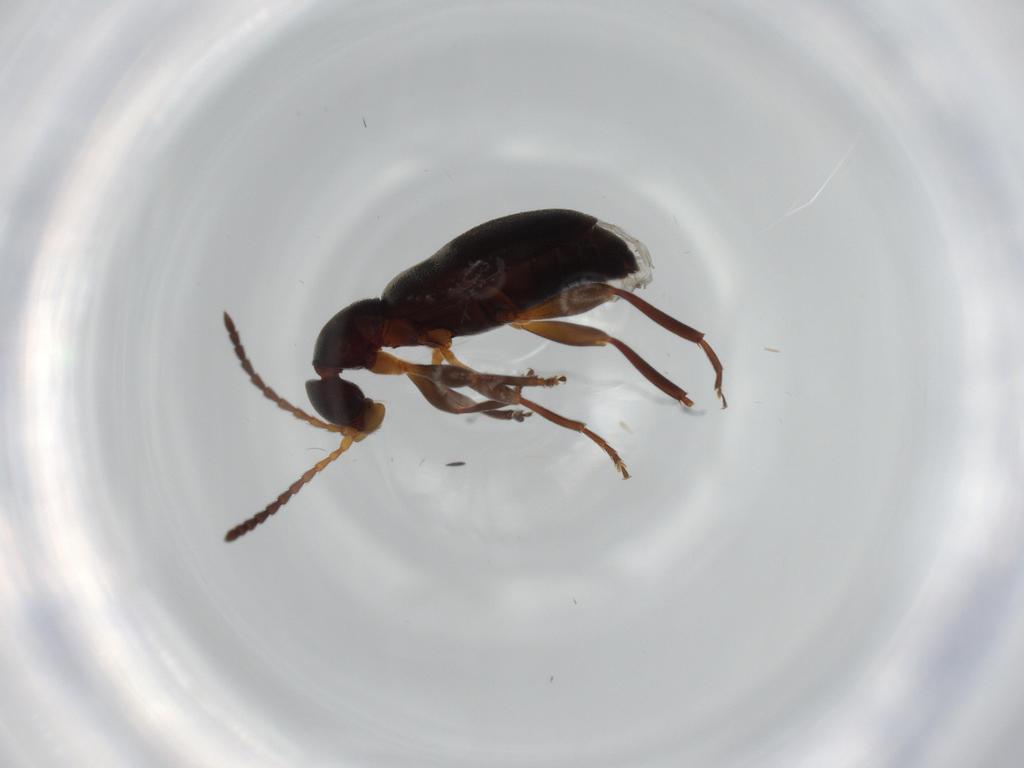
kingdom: Animalia
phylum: Arthropoda
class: Insecta
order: Coleoptera
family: Anthicidae
